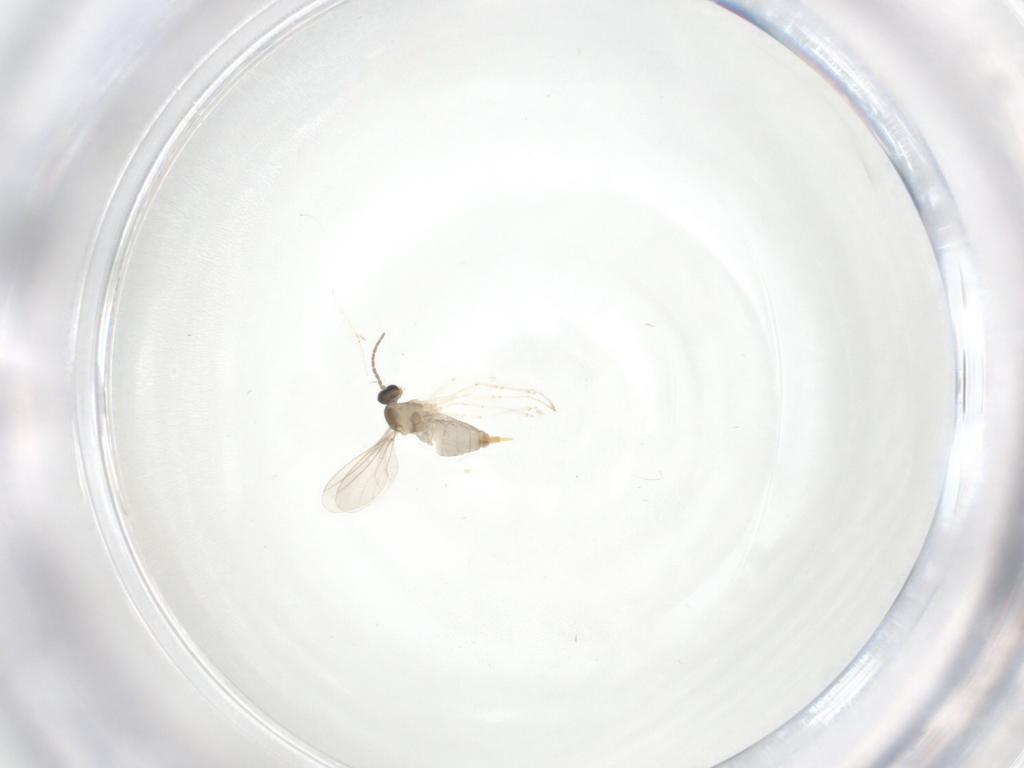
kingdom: Animalia
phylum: Arthropoda
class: Insecta
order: Diptera
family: Cecidomyiidae
